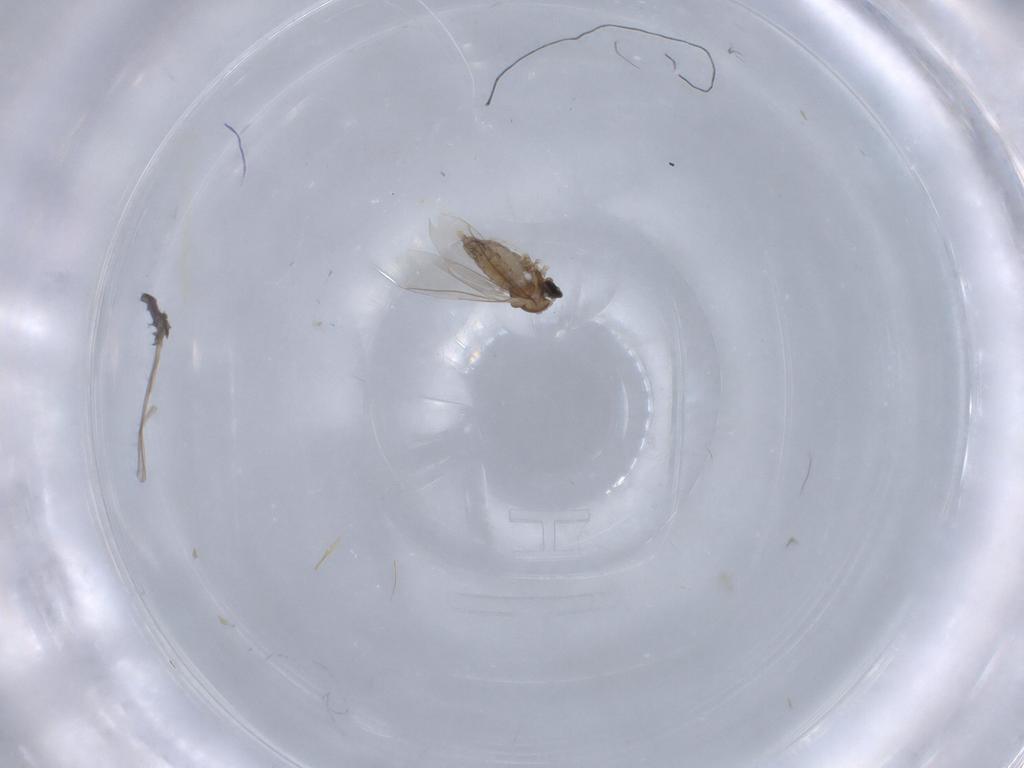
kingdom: Animalia
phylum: Arthropoda
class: Insecta
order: Diptera
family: Cecidomyiidae
